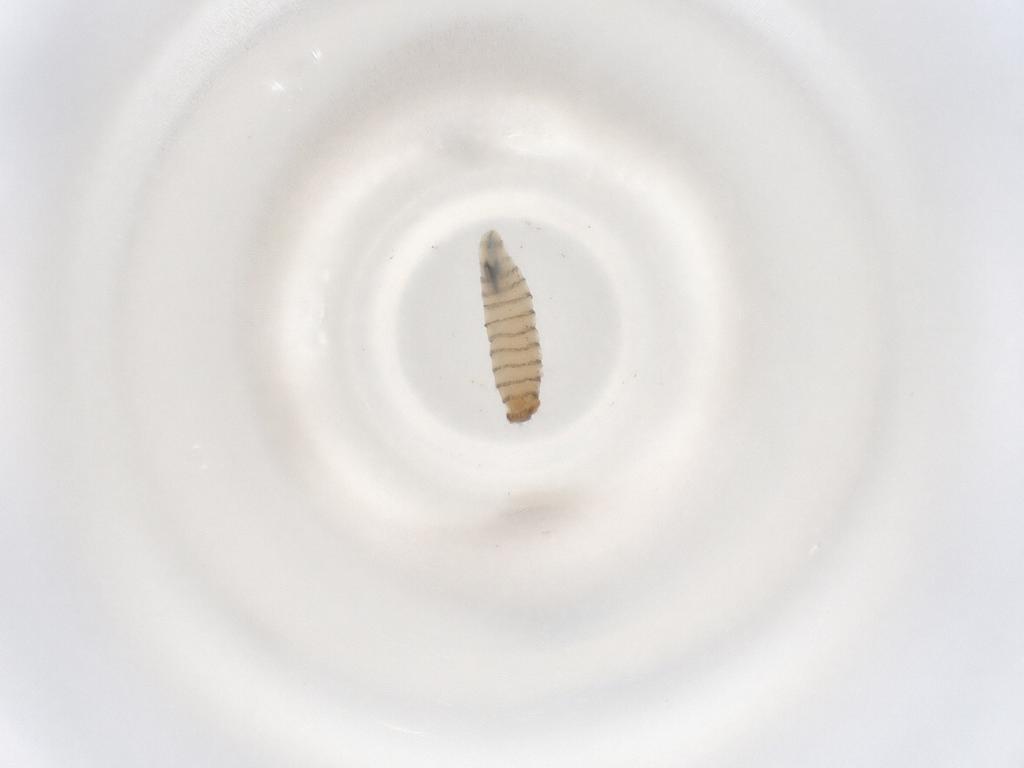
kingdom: Animalia
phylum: Arthropoda
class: Insecta
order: Diptera
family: Sarcophagidae
